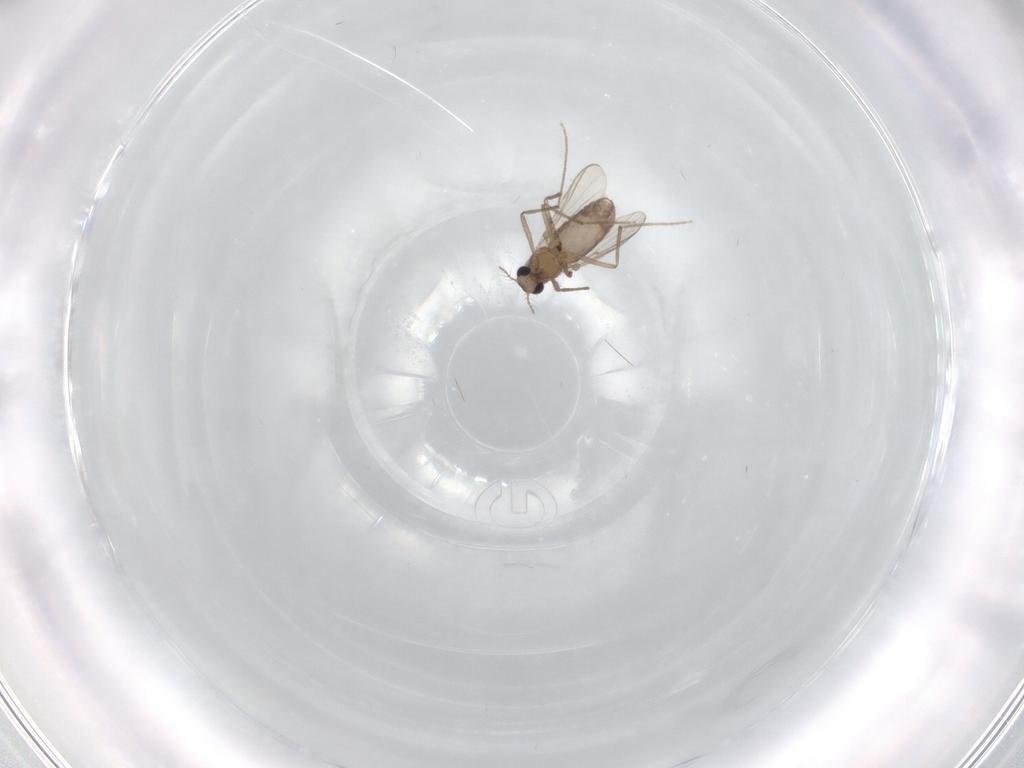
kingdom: Animalia
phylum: Arthropoda
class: Insecta
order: Diptera
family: Chironomidae
